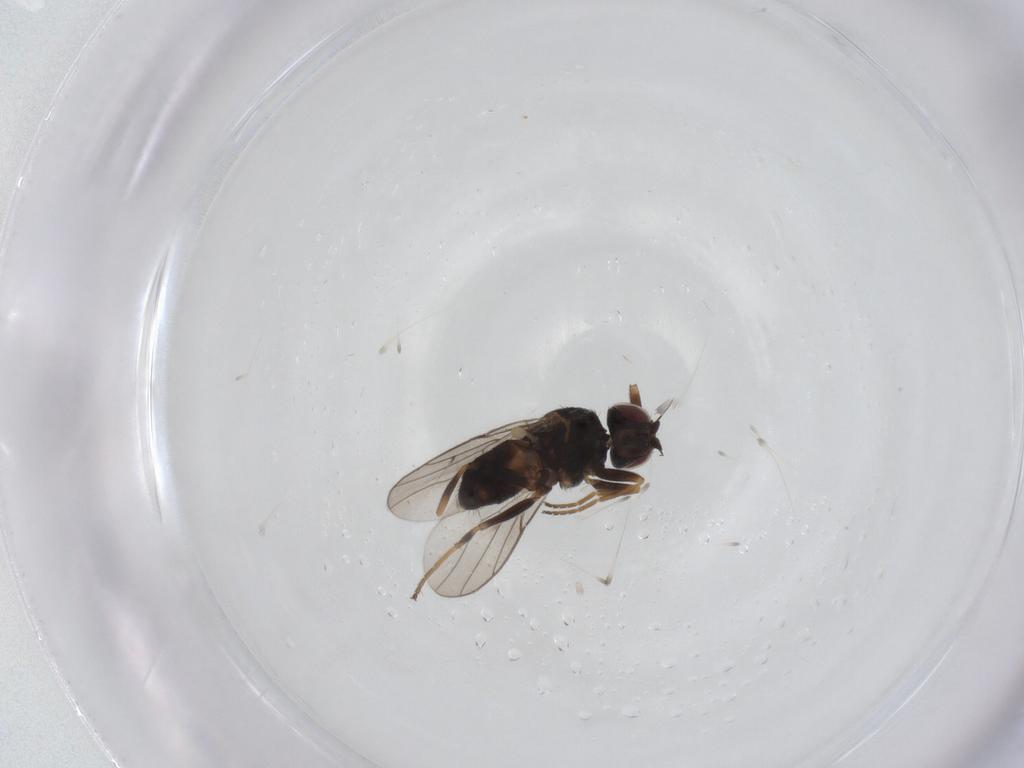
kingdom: Animalia
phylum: Arthropoda
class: Insecta
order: Diptera
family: Chloropidae
